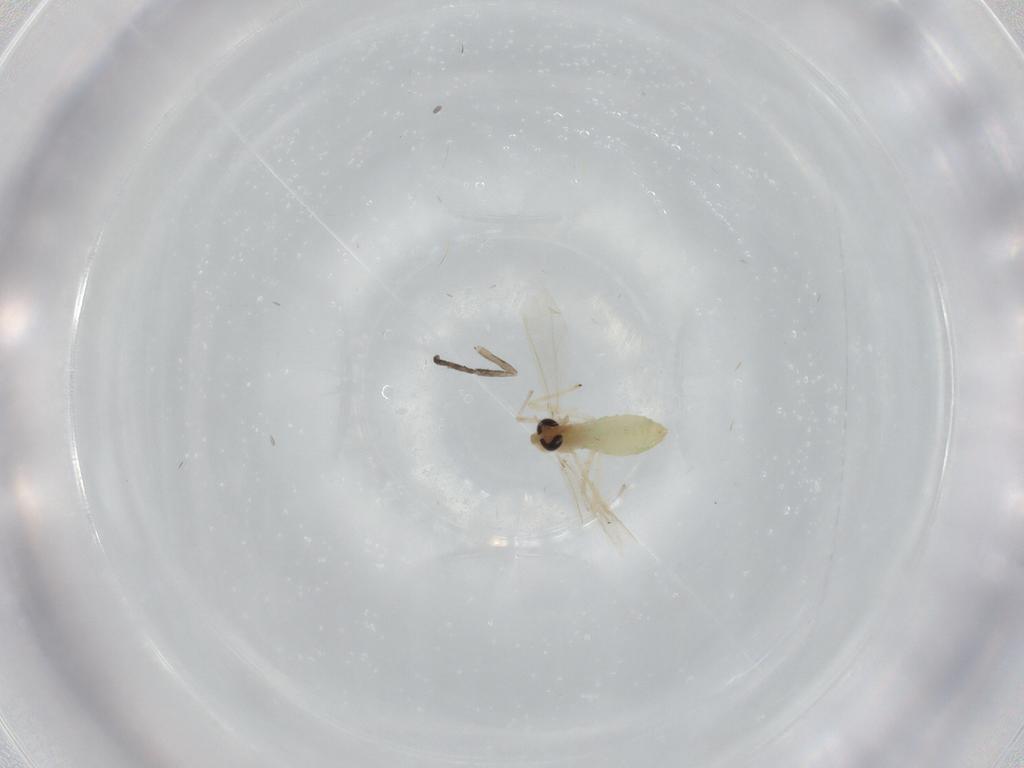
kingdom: Animalia
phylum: Arthropoda
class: Insecta
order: Diptera
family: Chironomidae
